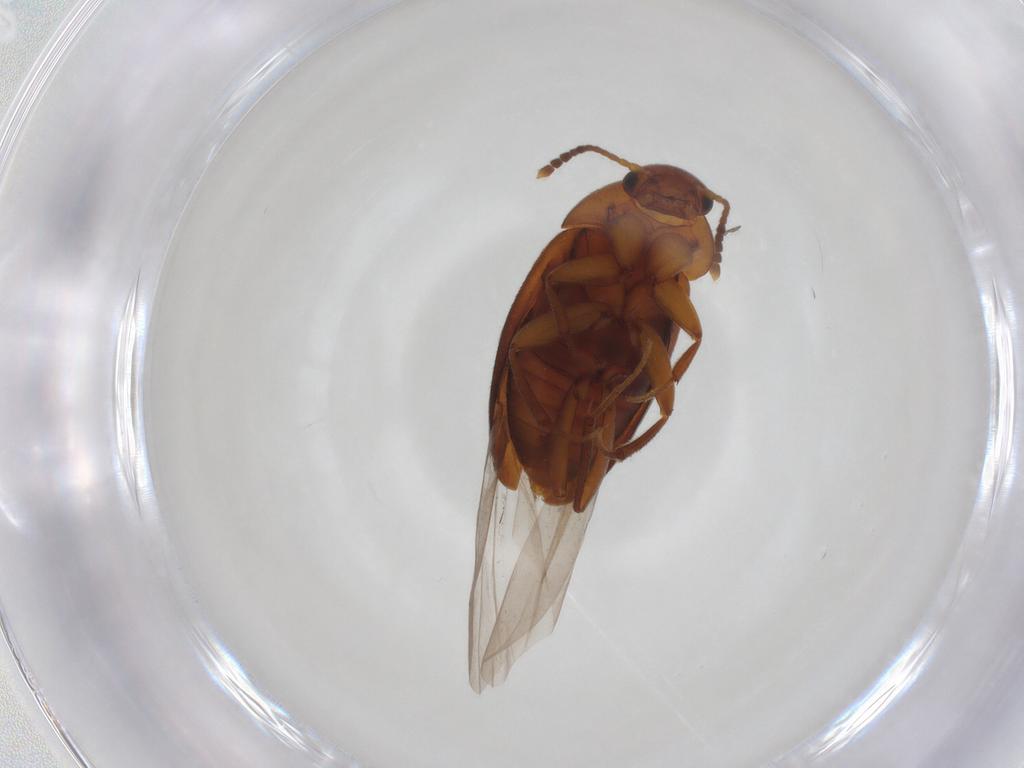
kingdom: Animalia
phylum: Arthropoda
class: Insecta
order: Coleoptera
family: Leiodidae
